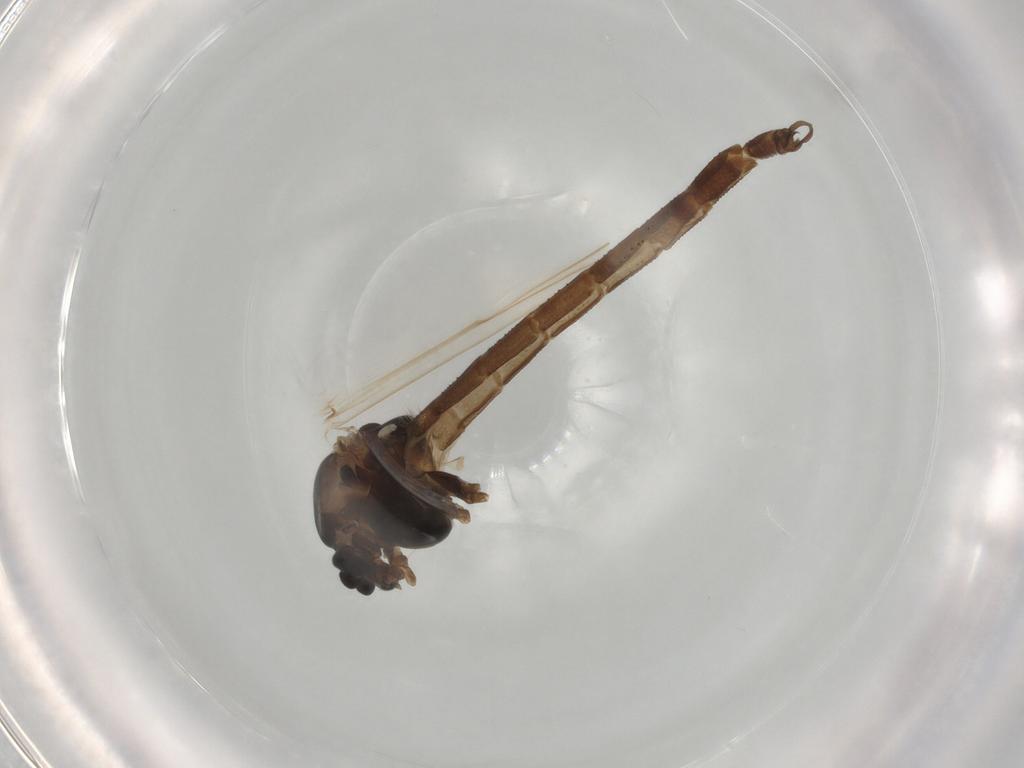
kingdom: Animalia
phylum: Arthropoda
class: Insecta
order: Diptera
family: Chironomidae
